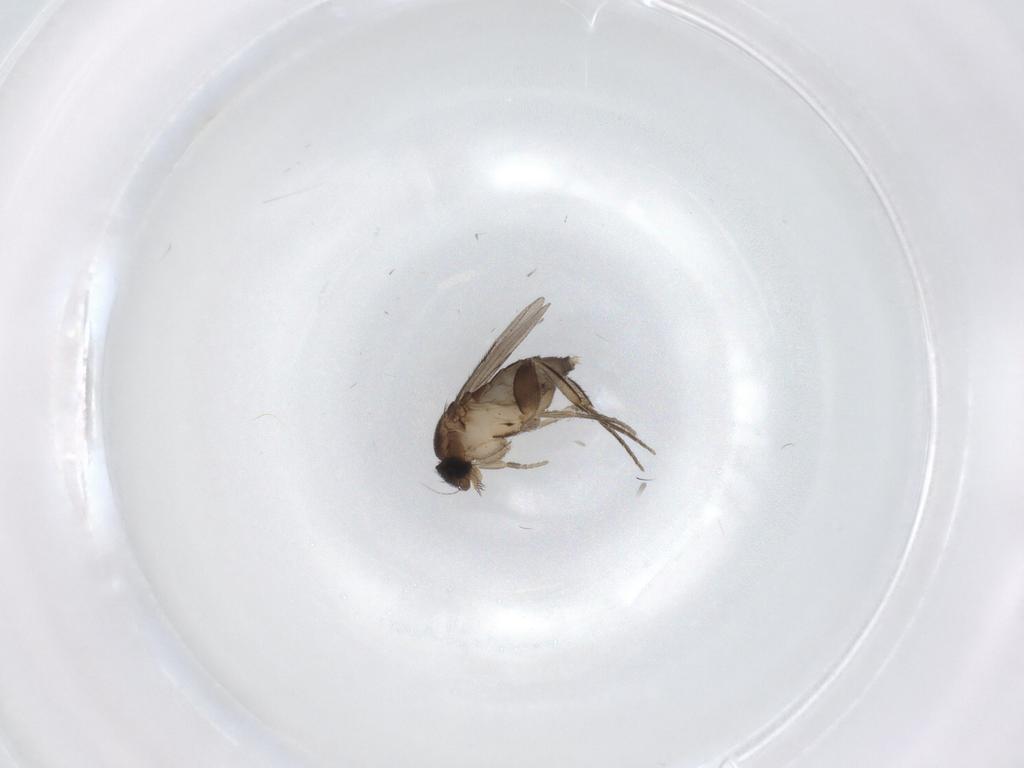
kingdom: Animalia
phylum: Arthropoda
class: Insecta
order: Diptera
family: Phoridae
